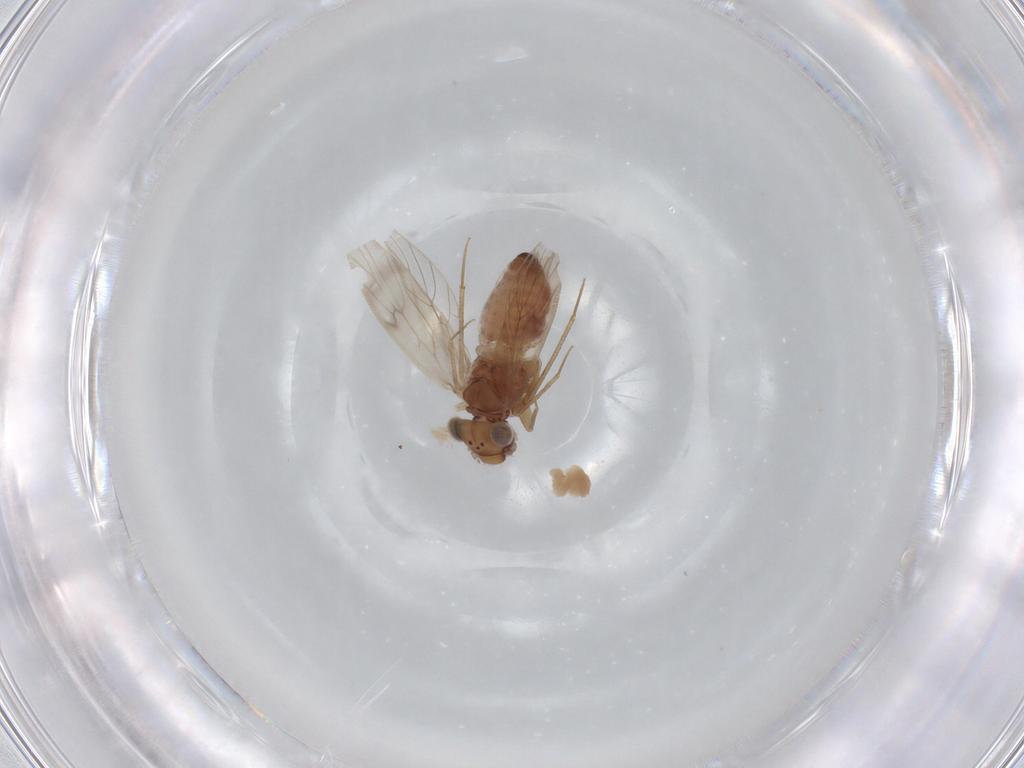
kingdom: Animalia
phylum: Arthropoda
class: Insecta
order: Psocodea
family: Lepidopsocidae
